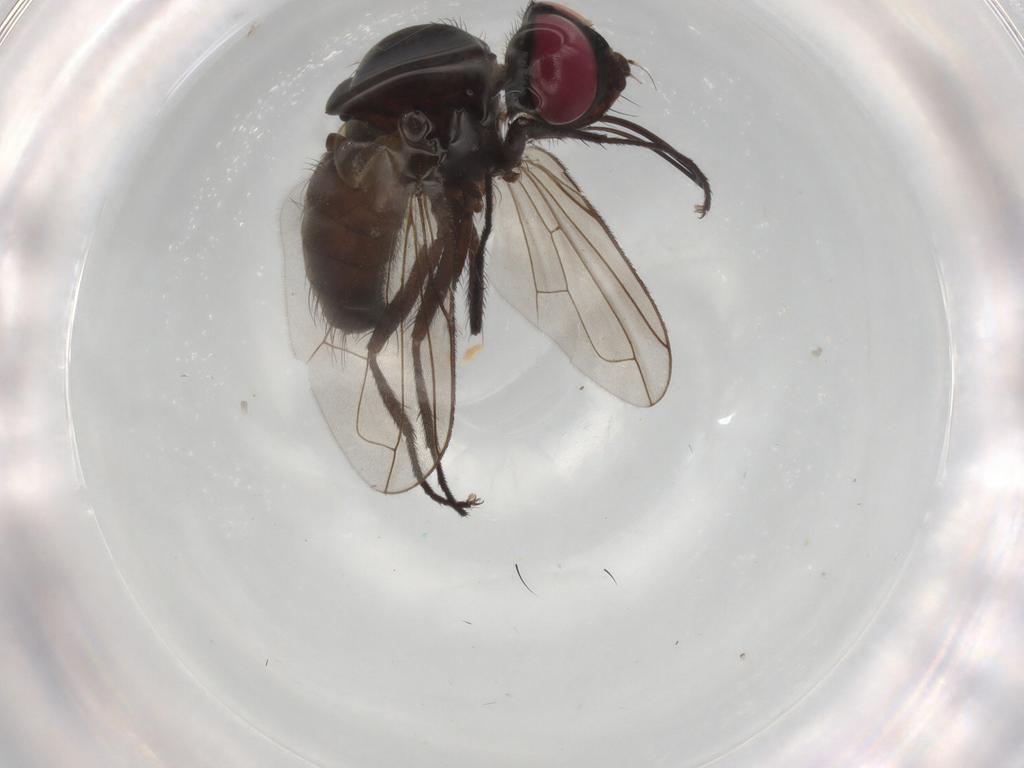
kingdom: Animalia
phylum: Arthropoda
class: Insecta
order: Diptera
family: Tachinidae
